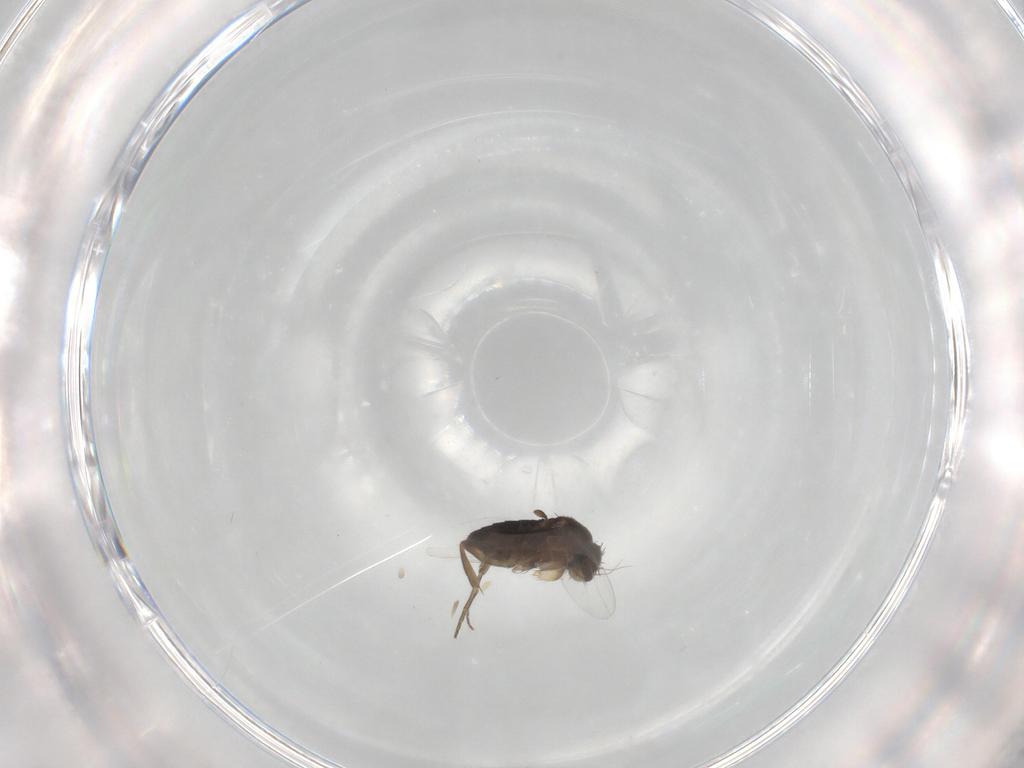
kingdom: Animalia
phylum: Arthropoda
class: Insecta
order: Diptera
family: Phoridae
